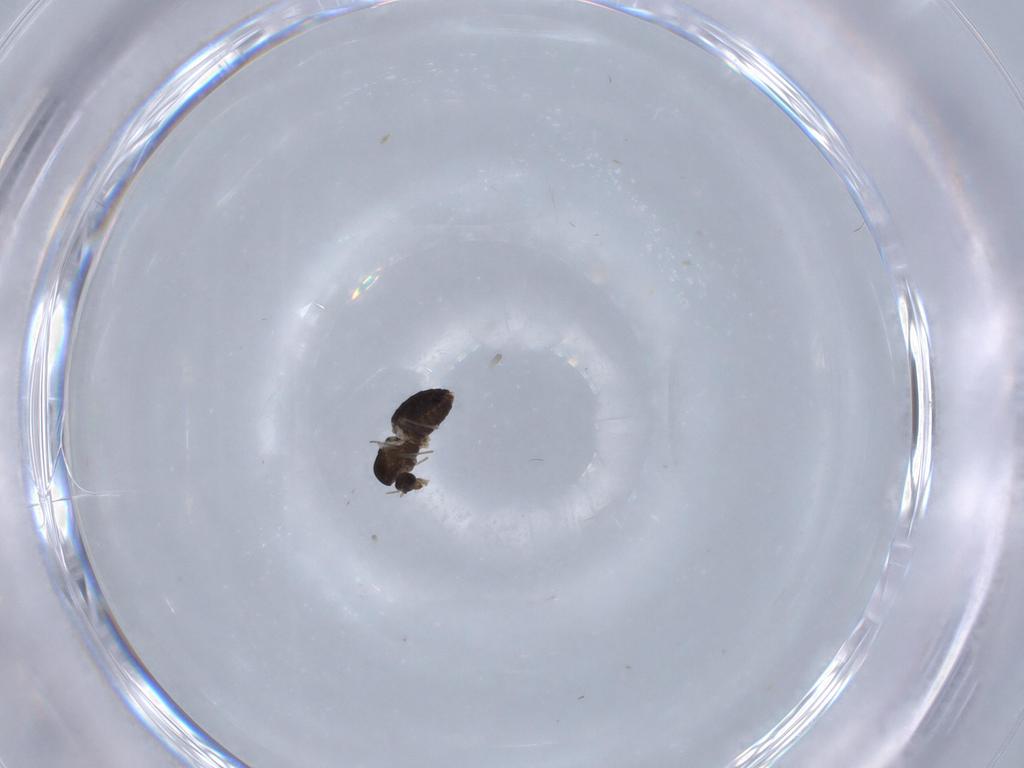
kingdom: Animalia
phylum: Arthropoda
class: Insecta
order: Diptera
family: Chironomidae
